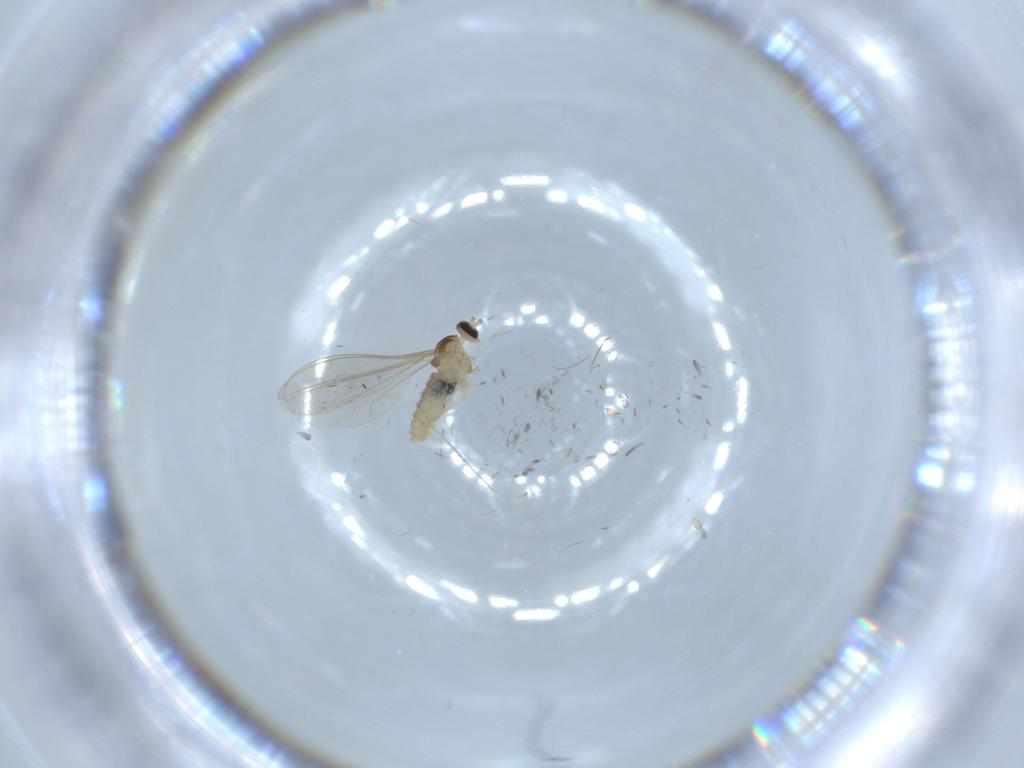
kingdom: Animalia
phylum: Arthropoda
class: Insecta
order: Diptera
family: Cecidomyiidae
